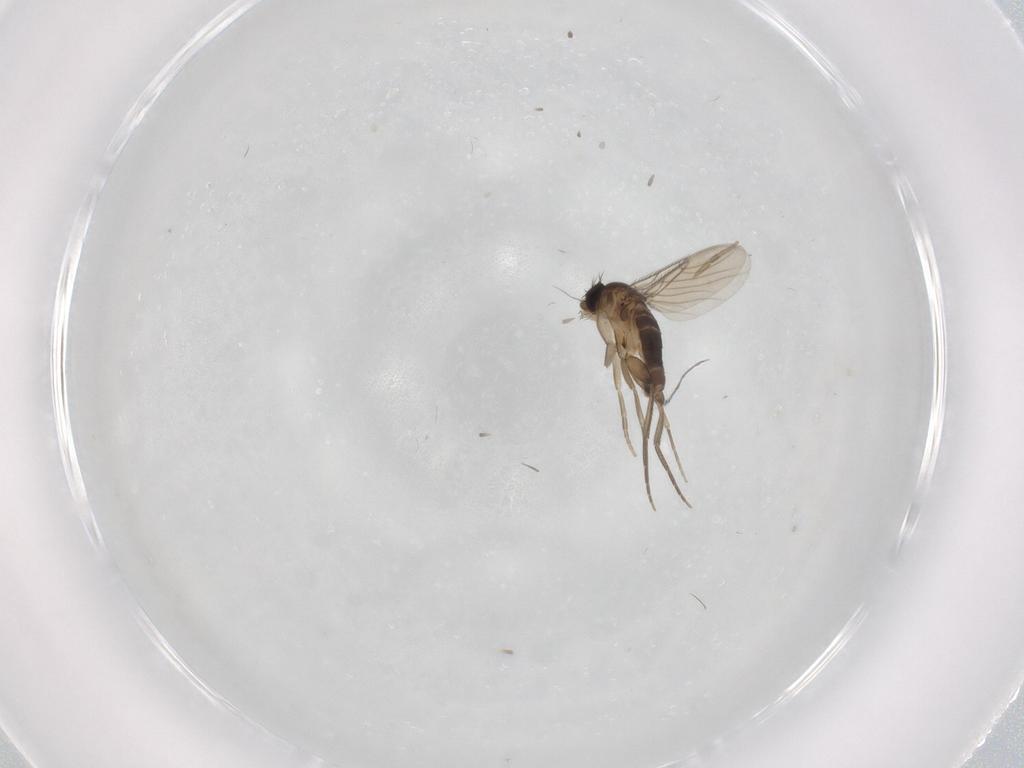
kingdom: Animalia
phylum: Arthropoda
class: Insecta
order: Diptera
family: Phoridae
